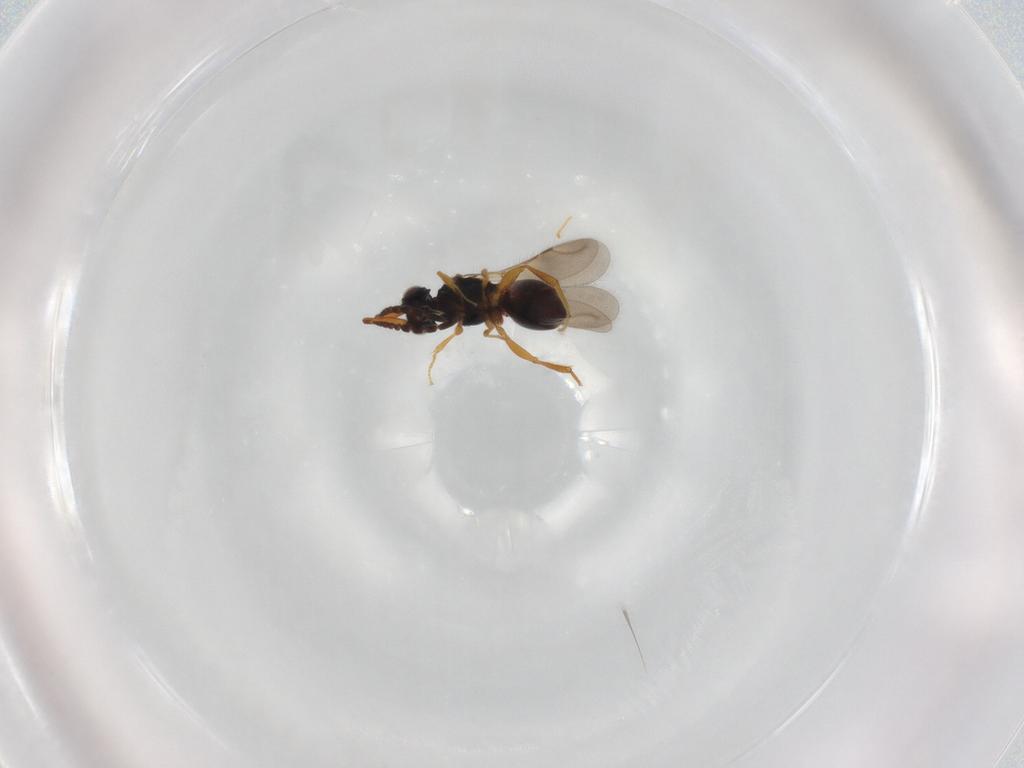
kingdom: Animalia
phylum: Arthropoda
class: Insecta
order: Hymenoptera
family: Ceraphronidae
